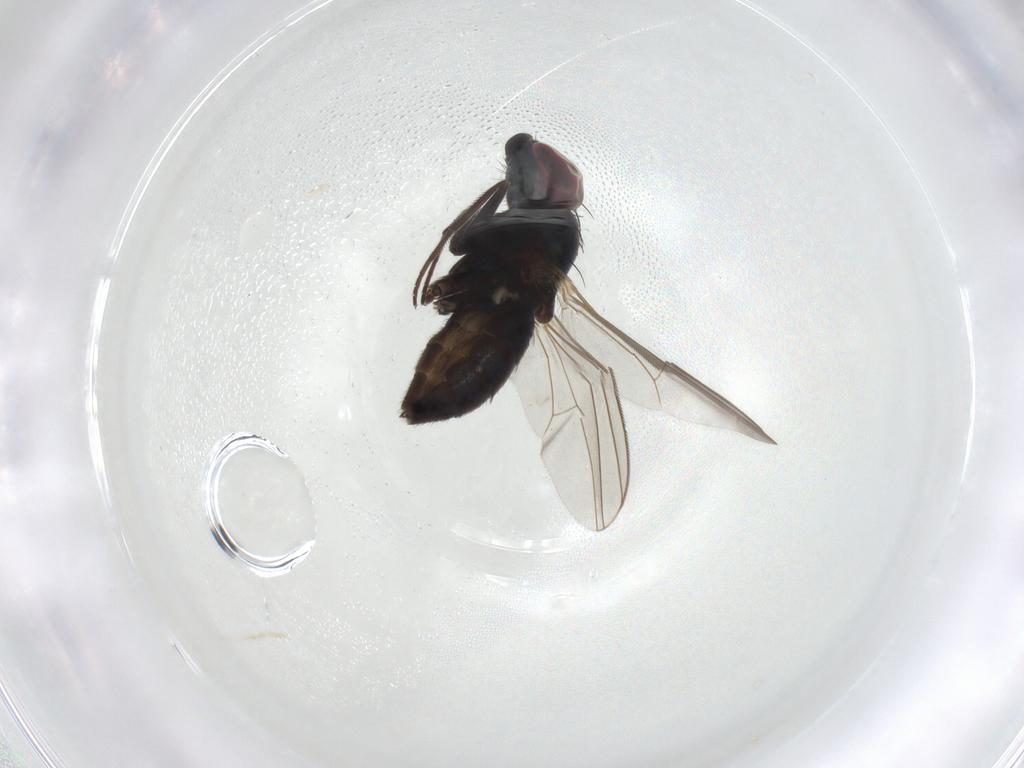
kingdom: Animalia
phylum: Arthropoda
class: Insecta
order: Diptera
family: Dolichopodidae
